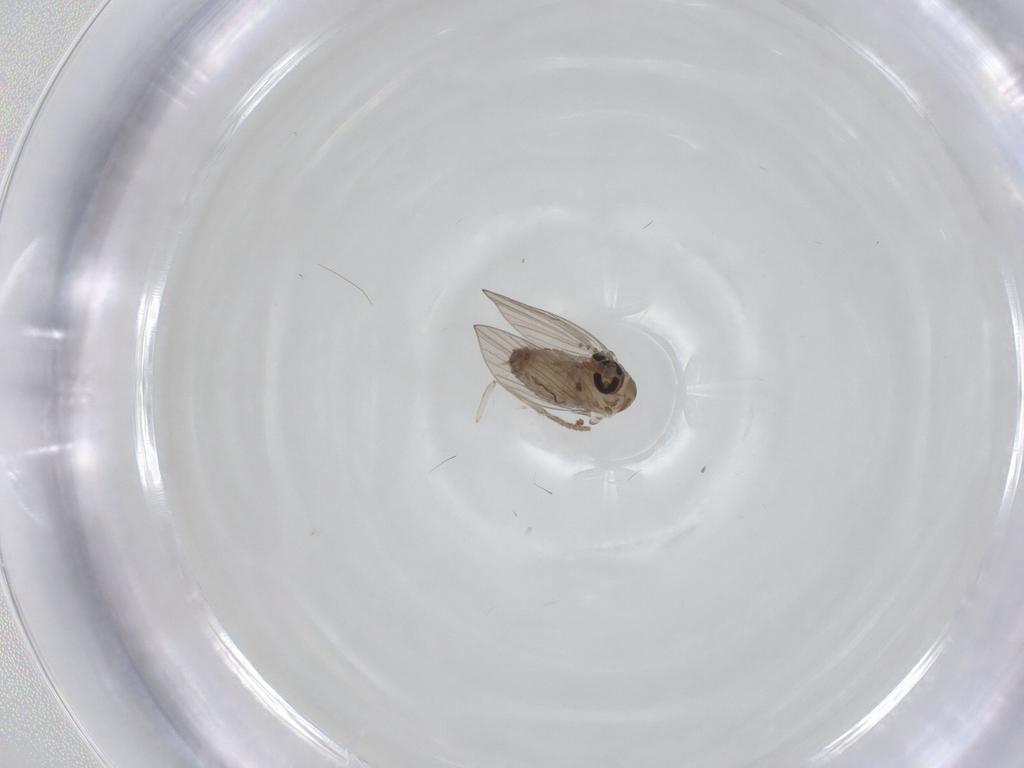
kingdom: Animalia
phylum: Arthropoda
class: Insecta
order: Diptera
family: Psychodidae
